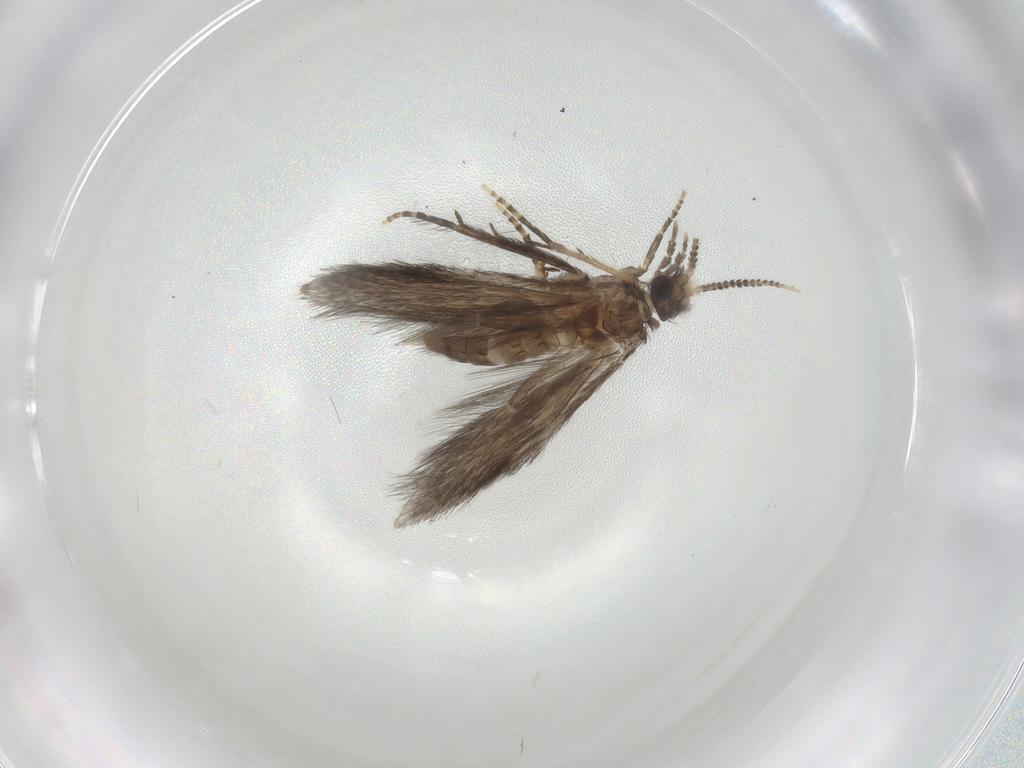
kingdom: Animalia
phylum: Arthropoda
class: Insecta
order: Trichoptera
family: Hydroptilidae
